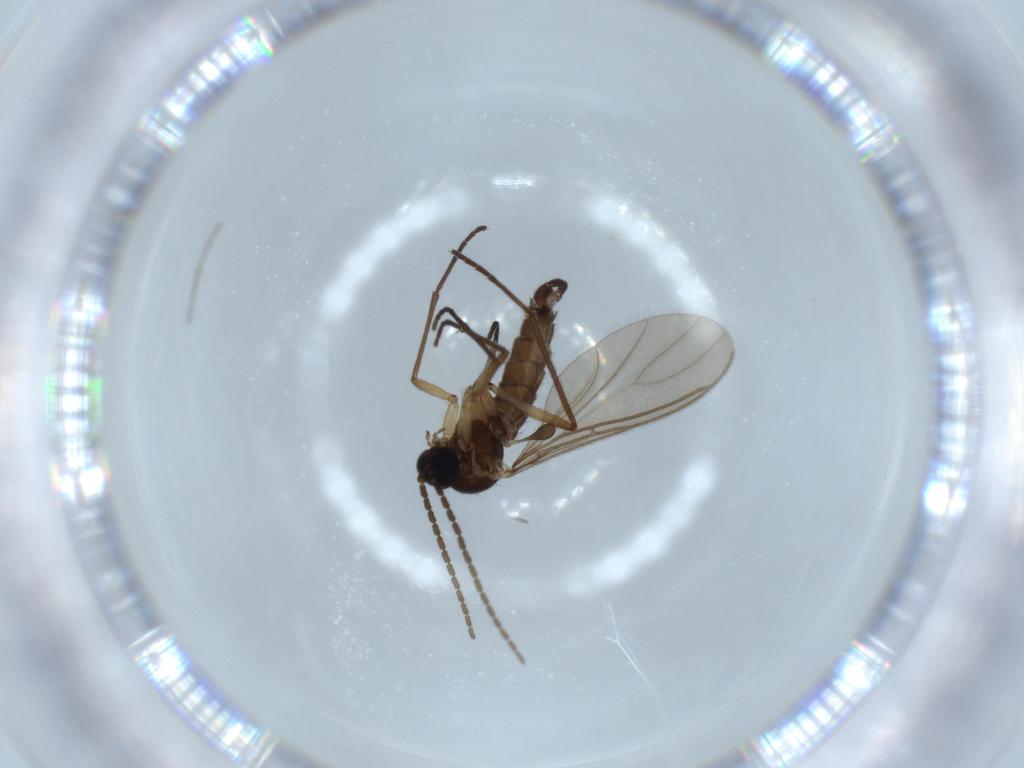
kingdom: Animalia
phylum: Arthropoda
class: Insecta
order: Diptera
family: Sciaridae
